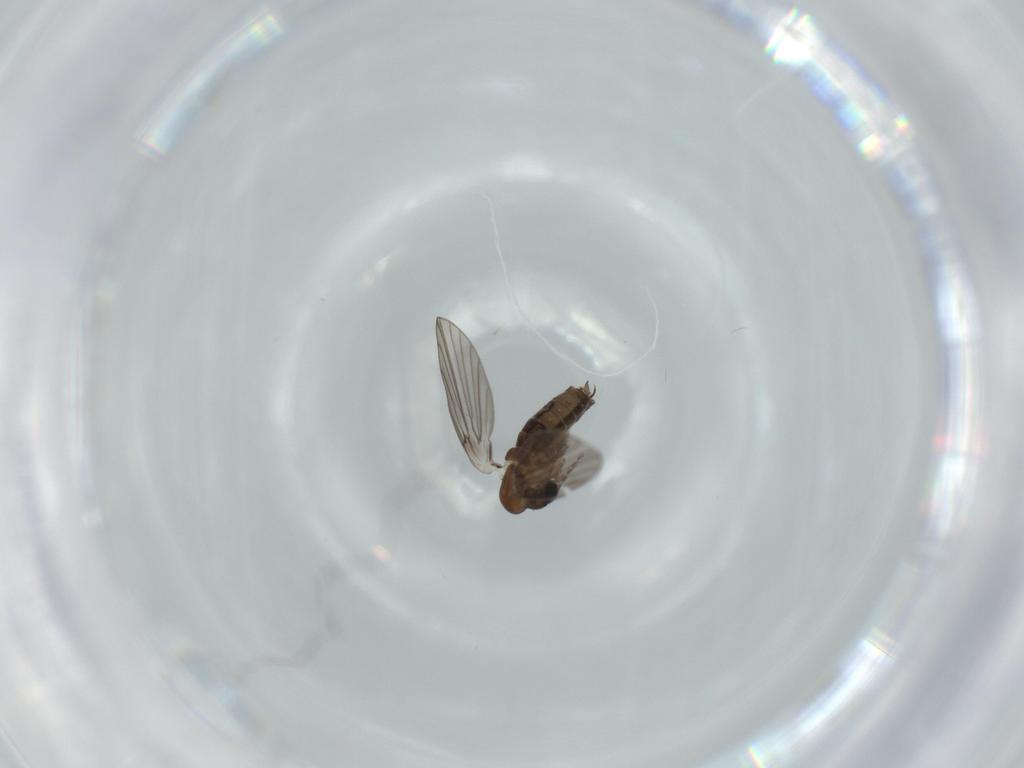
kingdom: Animalia
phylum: Arthropoda
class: Insecta
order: Diptera
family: Psychodidae
